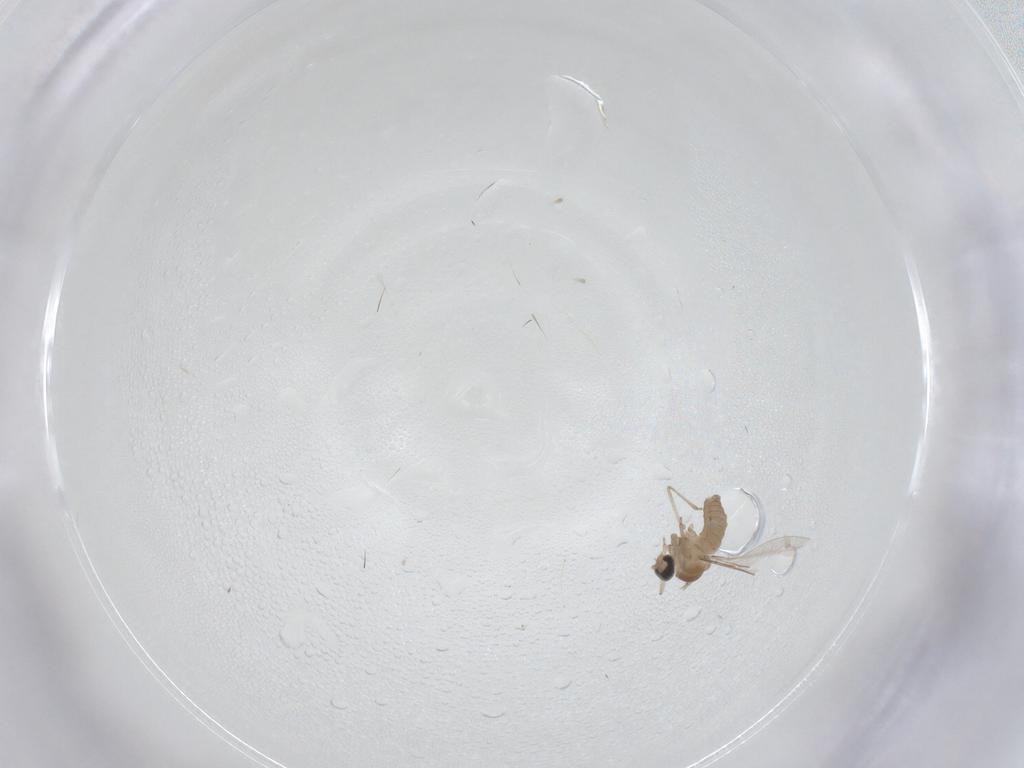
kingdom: Animalia
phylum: Arthropoda
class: Insecta
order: Diptera
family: Cecidomyiidae
